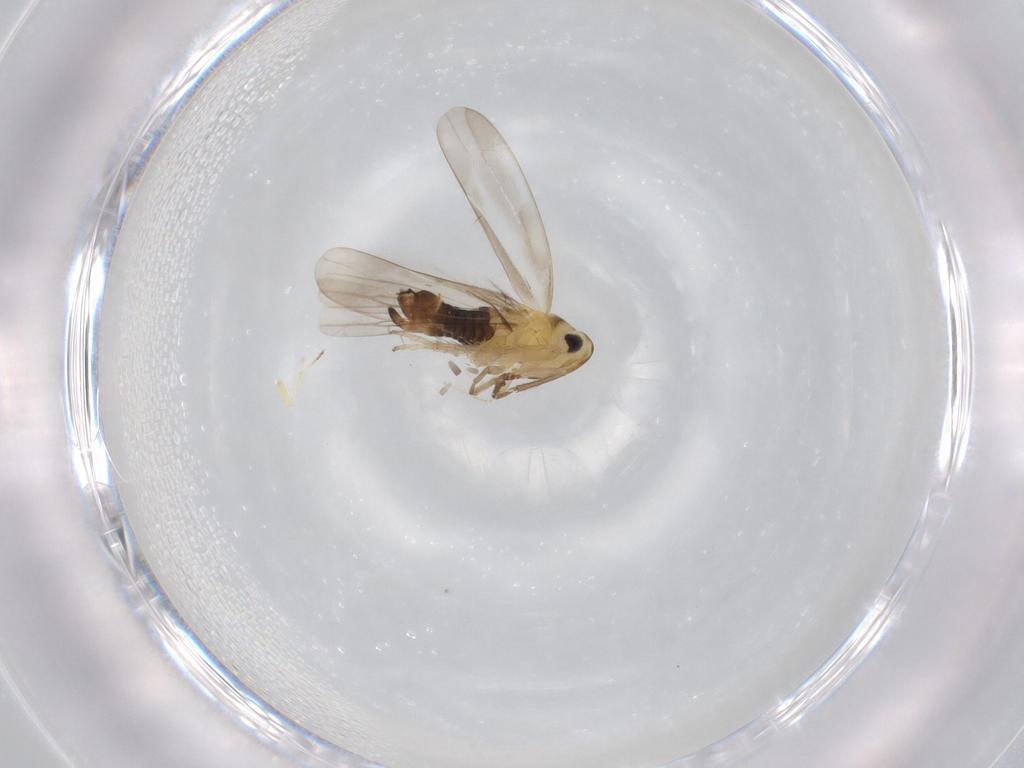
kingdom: Animalia
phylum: Arthropoda
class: Insecta
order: Hemiptera
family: Cicadellidae
